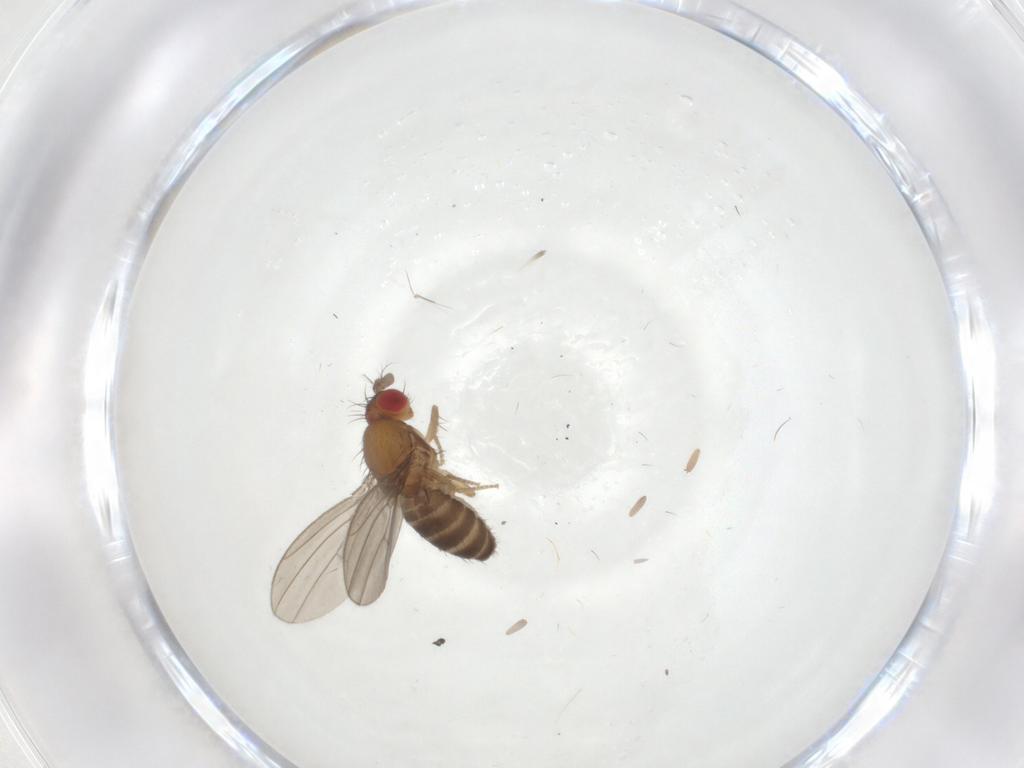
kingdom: Animalia
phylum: Arthropoda
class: Insecta
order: Diptera
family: Drosophilidae
